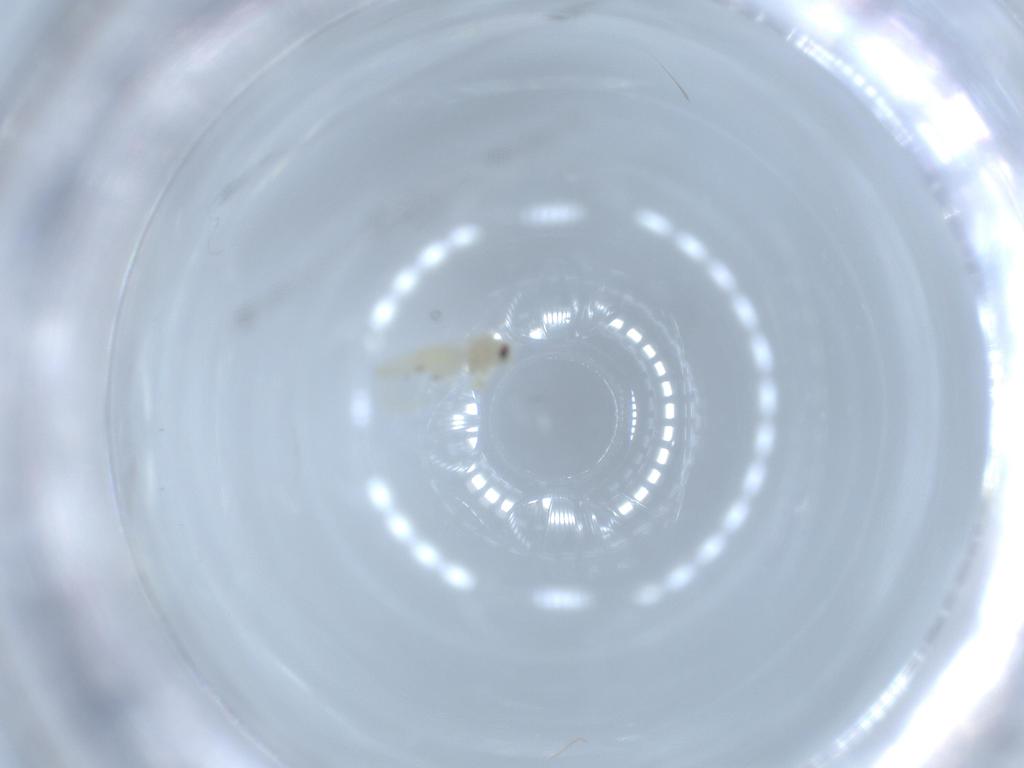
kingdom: Animalia
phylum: Arthropoda
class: Insecta
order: Hemiptera
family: Aleyrodidae
